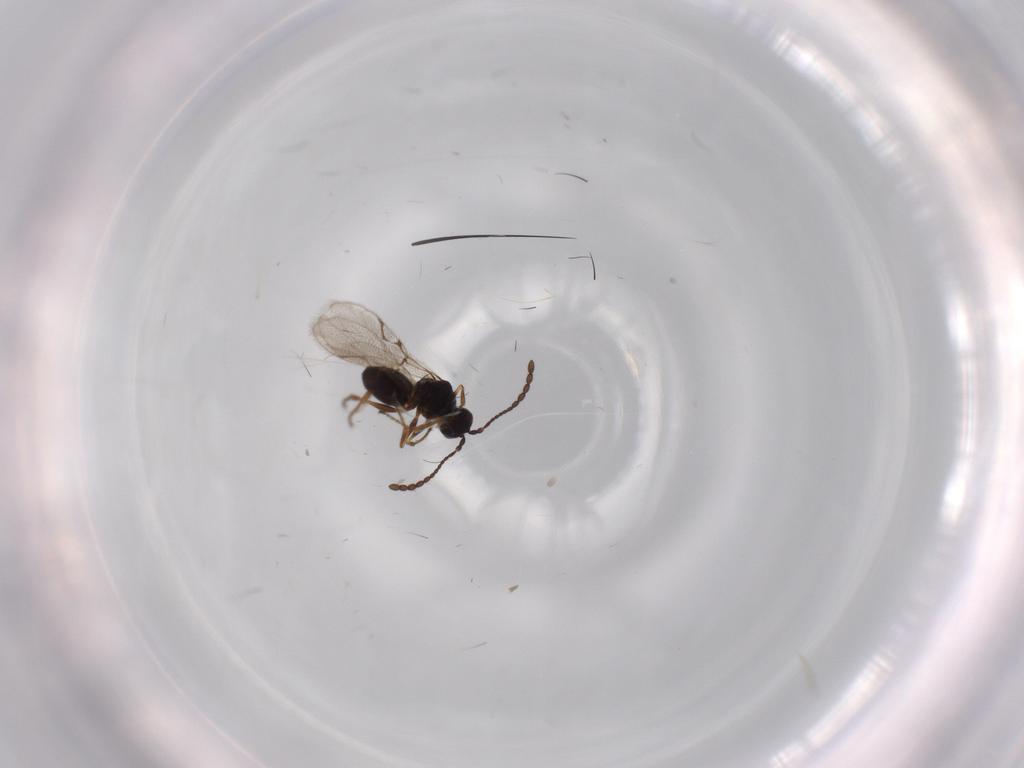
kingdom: Animalia
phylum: Arthropoda
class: Insecta
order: Hymenoptera
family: Figitidae
